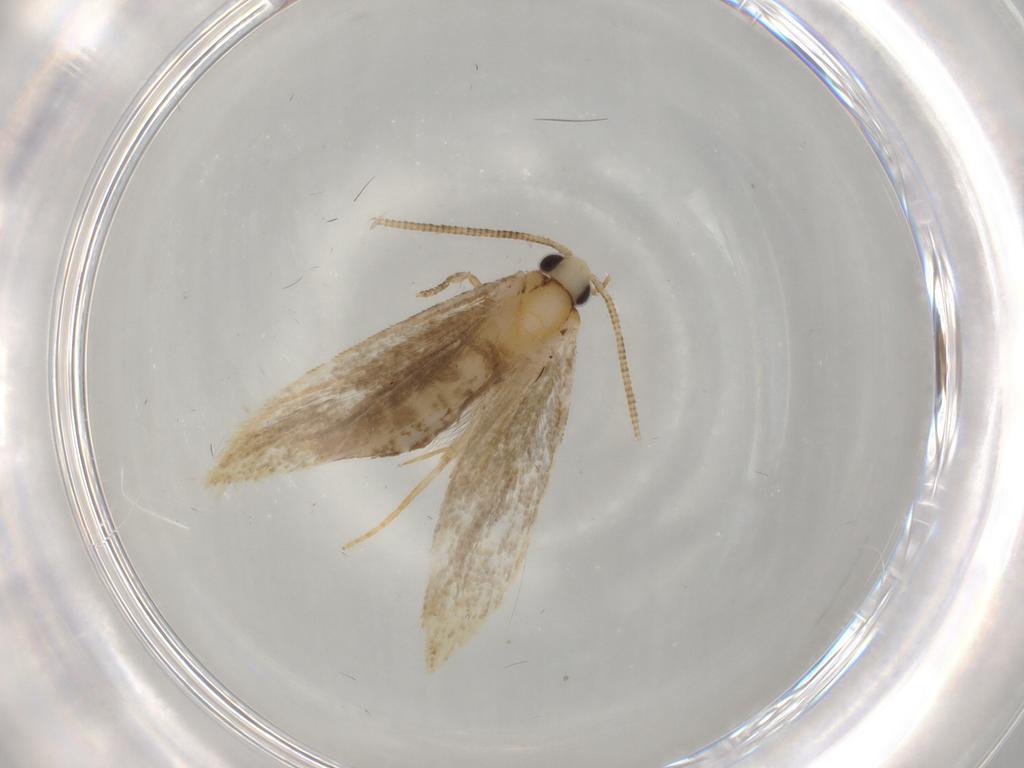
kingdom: Animalia
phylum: Arthropoda
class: Insecta
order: Lepidoptera
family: Tineidae
